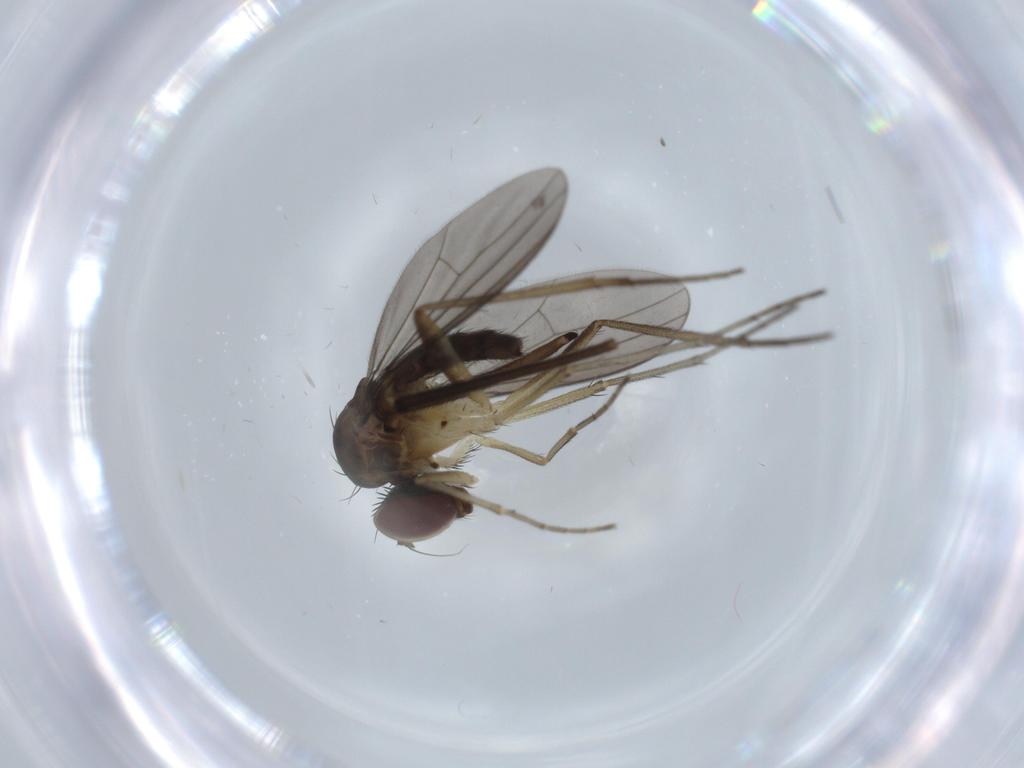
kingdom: Animalia
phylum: Arthropoda
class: Insecta
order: Diptera
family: Sciaridae
